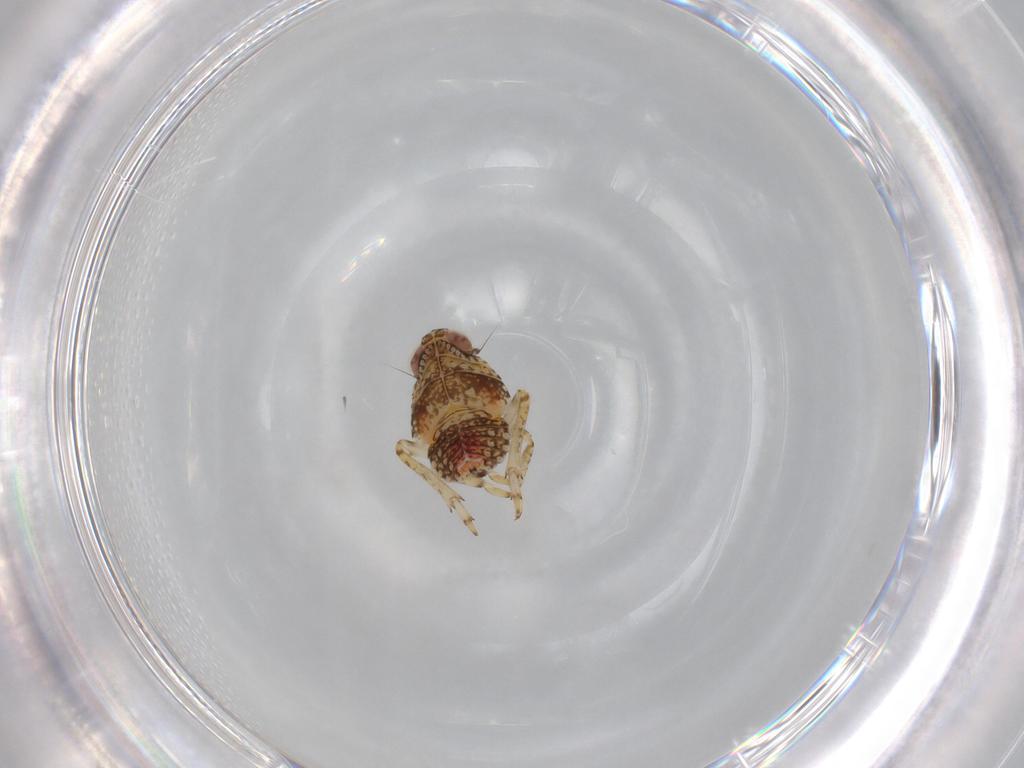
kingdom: Animalia
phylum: Arthropoda
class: Insecta
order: Hemiptera
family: Issidae
